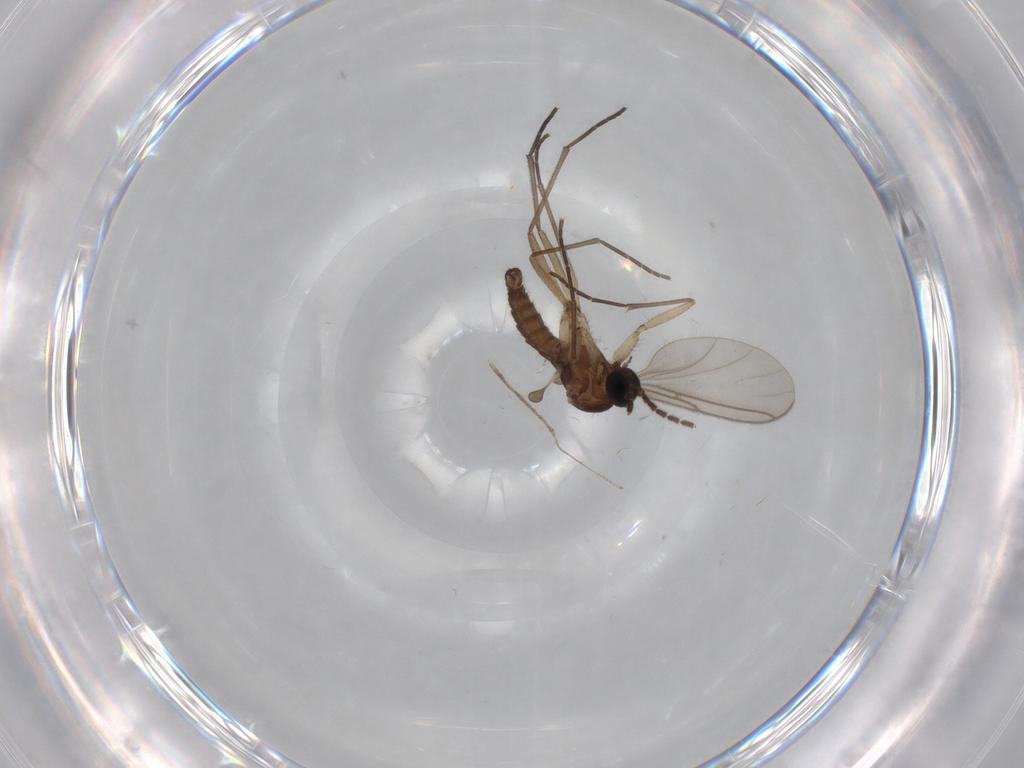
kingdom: Animalia
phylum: Arthropoda
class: Insecta
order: Diptera
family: Sciaridae
